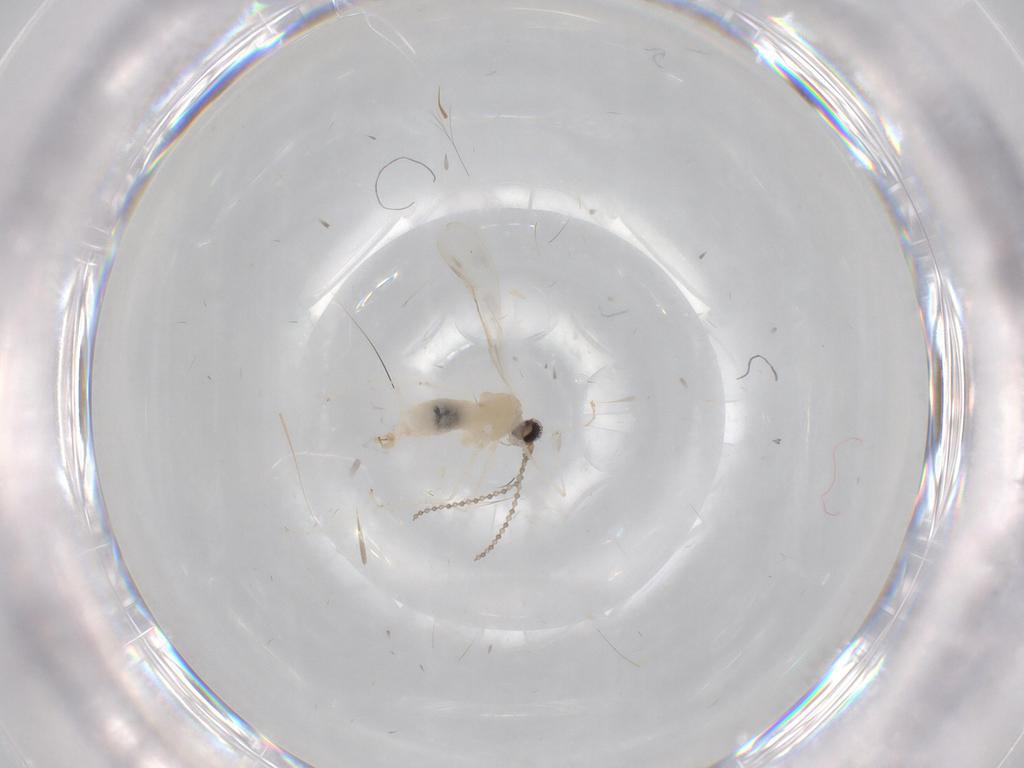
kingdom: Animalia
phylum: Arthropoda
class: Insecta
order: Diptera
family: Cecidomyiidae
